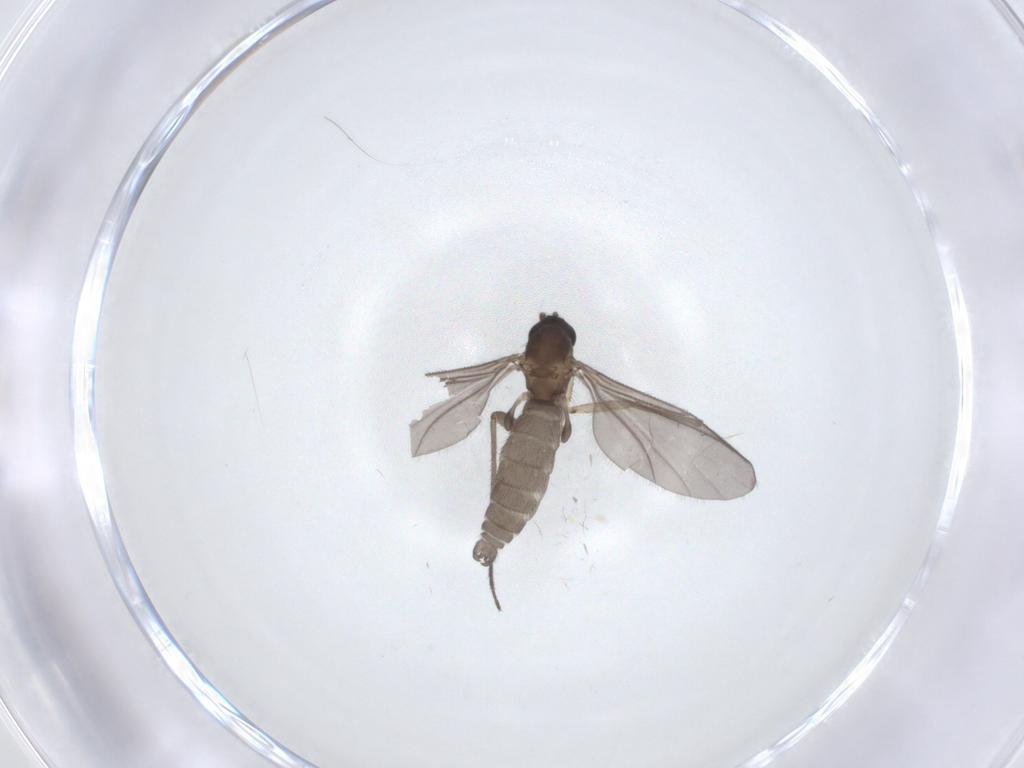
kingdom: Animalia
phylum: Arthropoda
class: Insecta
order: Diptera
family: Sciaridae
